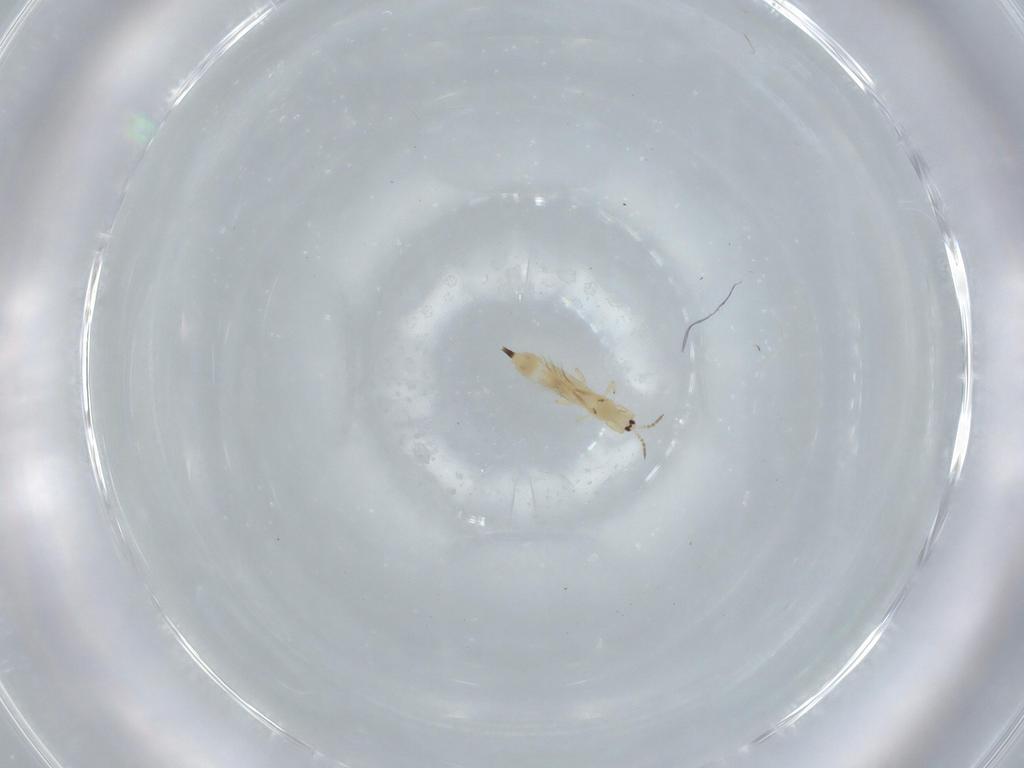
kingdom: Animalia
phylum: Arthropoda
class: Insecta
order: Thysanoptera
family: Phlaeothripidae
